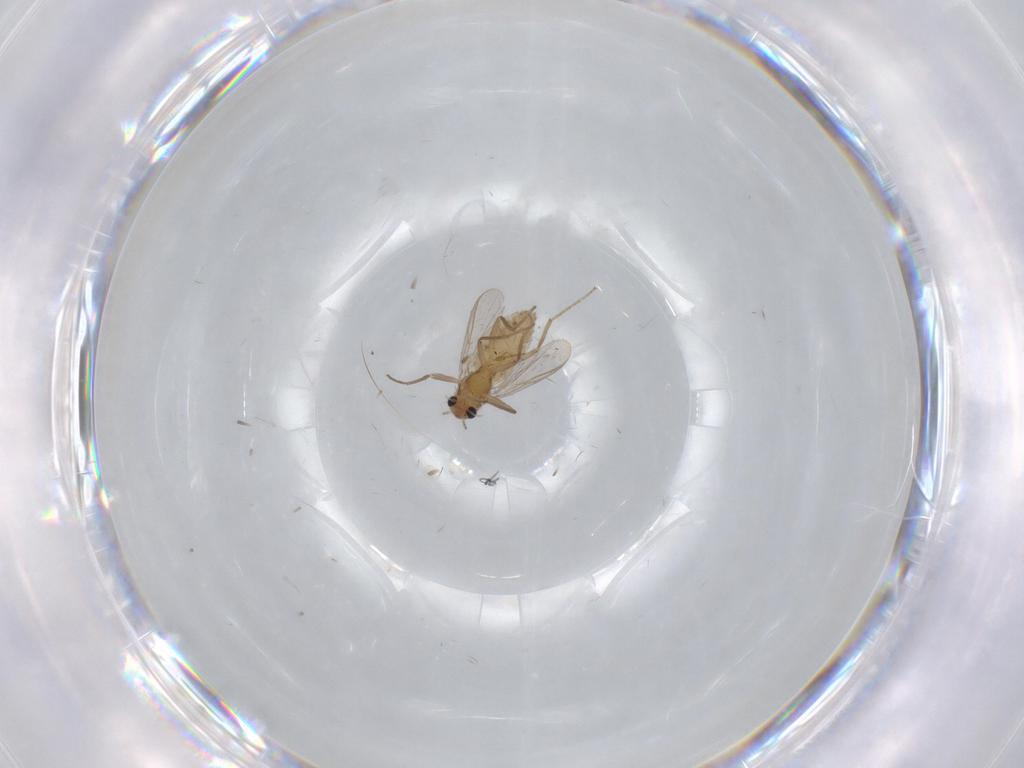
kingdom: Animalia
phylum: Arthropoda
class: Insecta
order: Diptera
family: Cecidomyiidae
